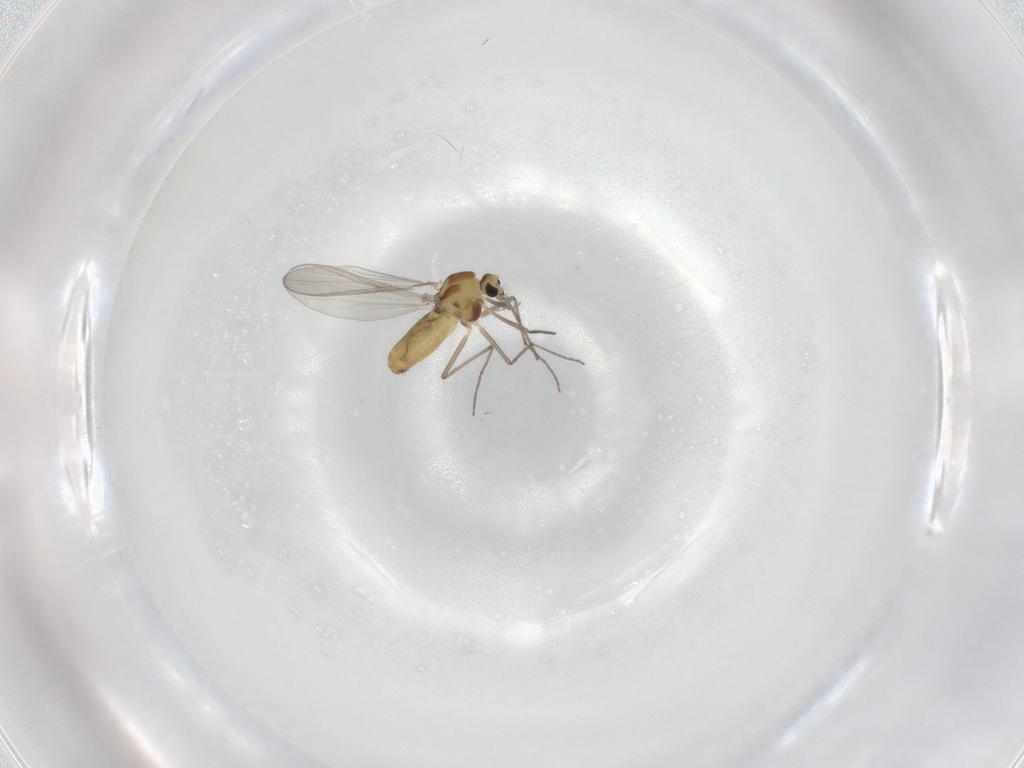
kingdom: Animalia
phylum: Arthropoda
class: Insecta
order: Diptera
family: Chironomidae
